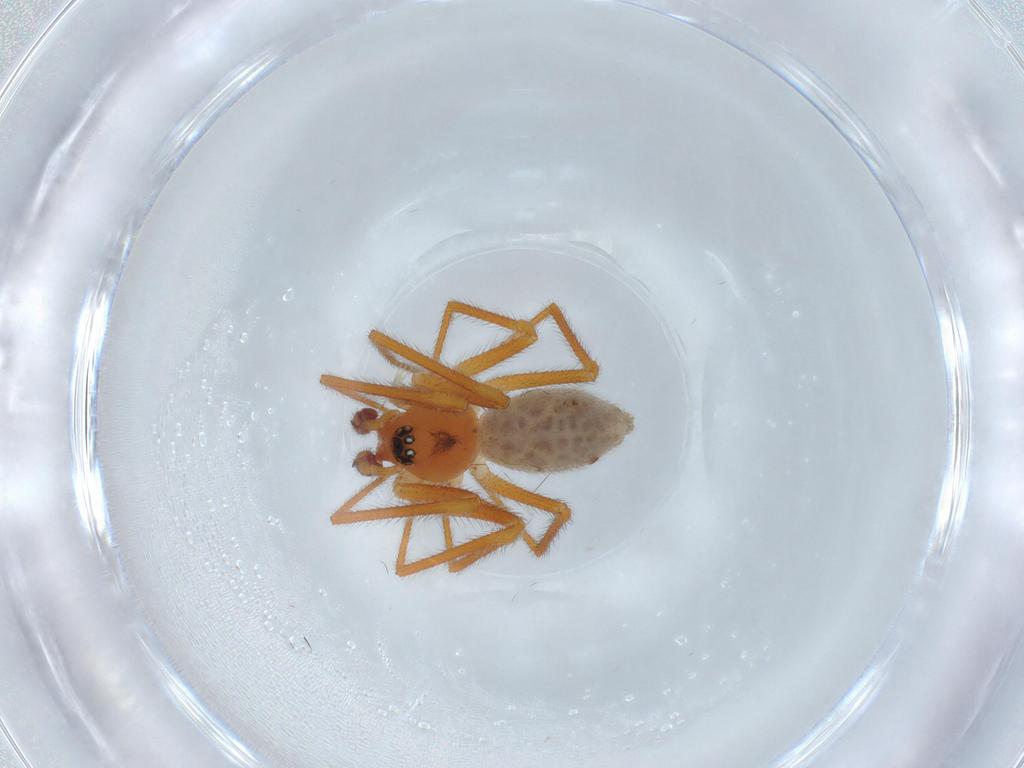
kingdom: Animalia
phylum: Arthropoda
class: Arachnida
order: Araneae
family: Linyphiidae
